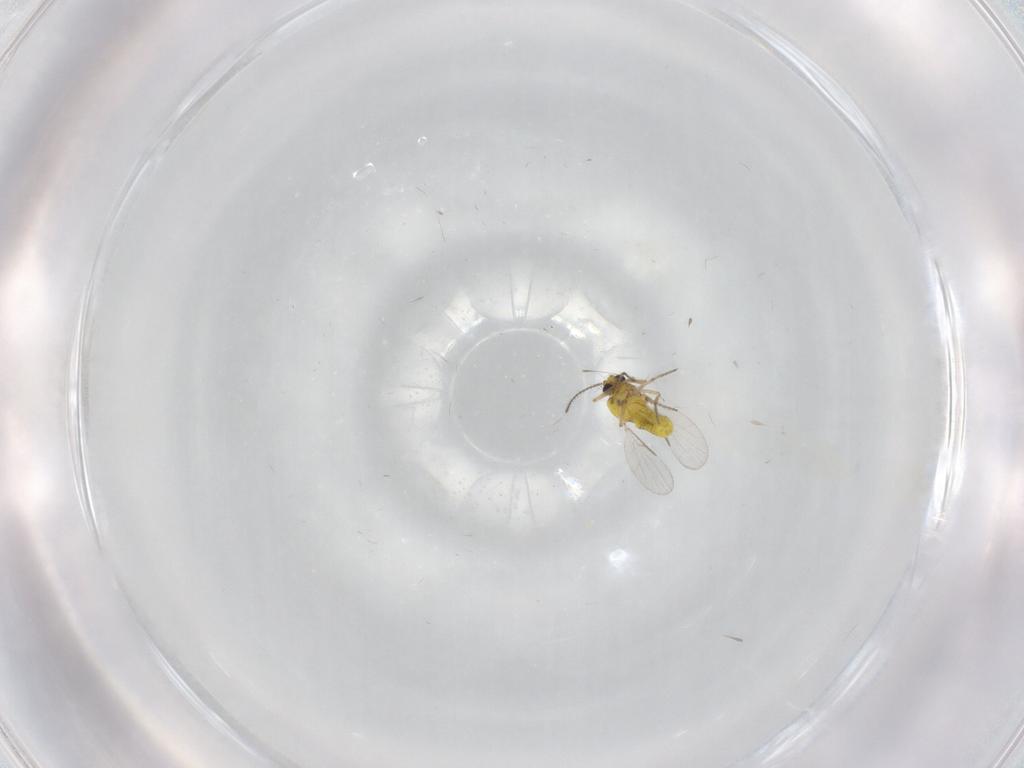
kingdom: Animalia
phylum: Arthropoda
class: Insecta
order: Diptera
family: Ceratopogonidae
